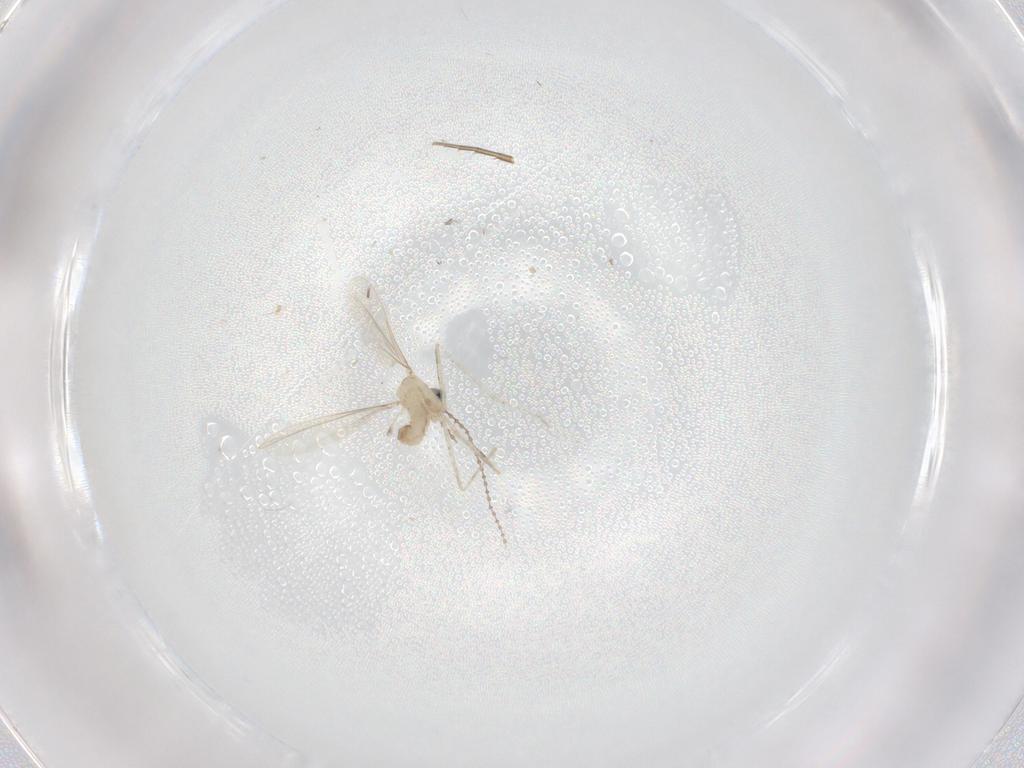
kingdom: Animalia
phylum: Arthropoda
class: Insecta
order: Diptera
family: Cecidomyiidae
